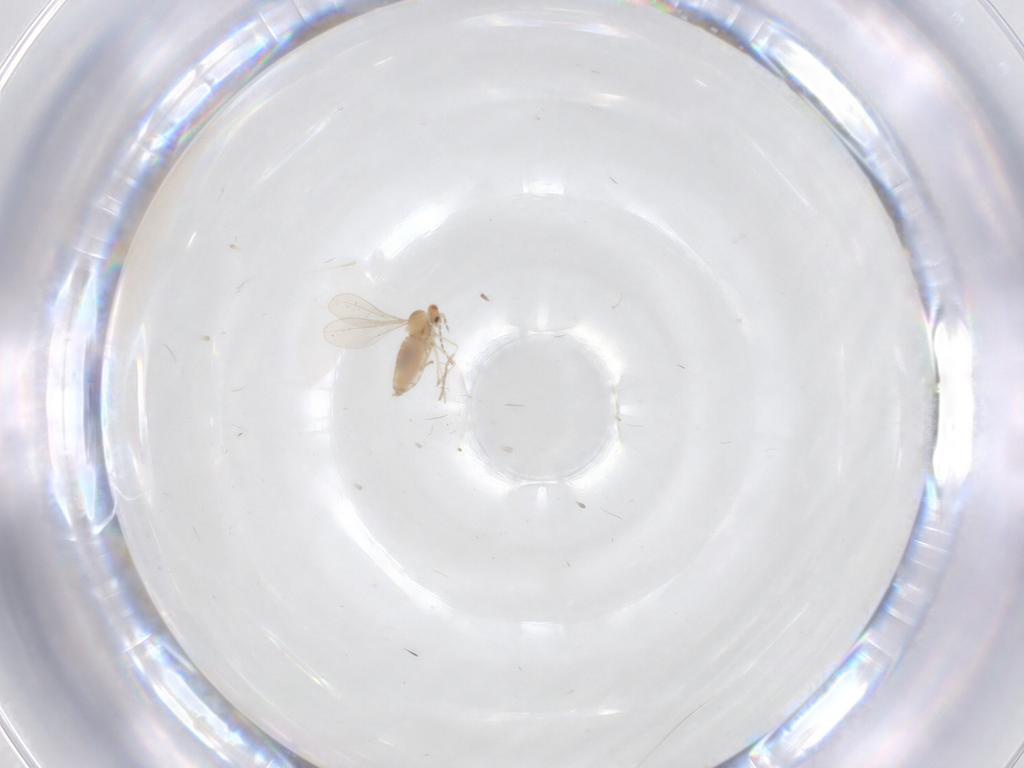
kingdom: Animalia
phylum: Arthropoda
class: Insecta
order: Diptera
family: Cecidomyiidae
